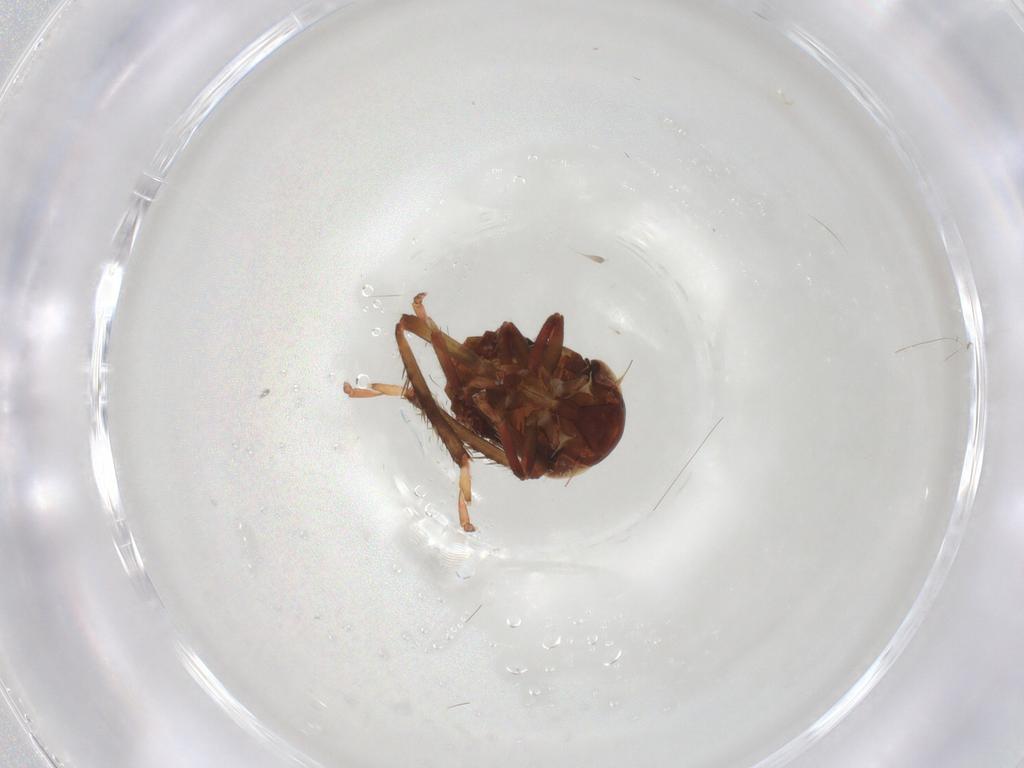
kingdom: Animalia
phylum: Arthropoda
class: Insecta
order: Hemiptera
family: Cicadellidae
